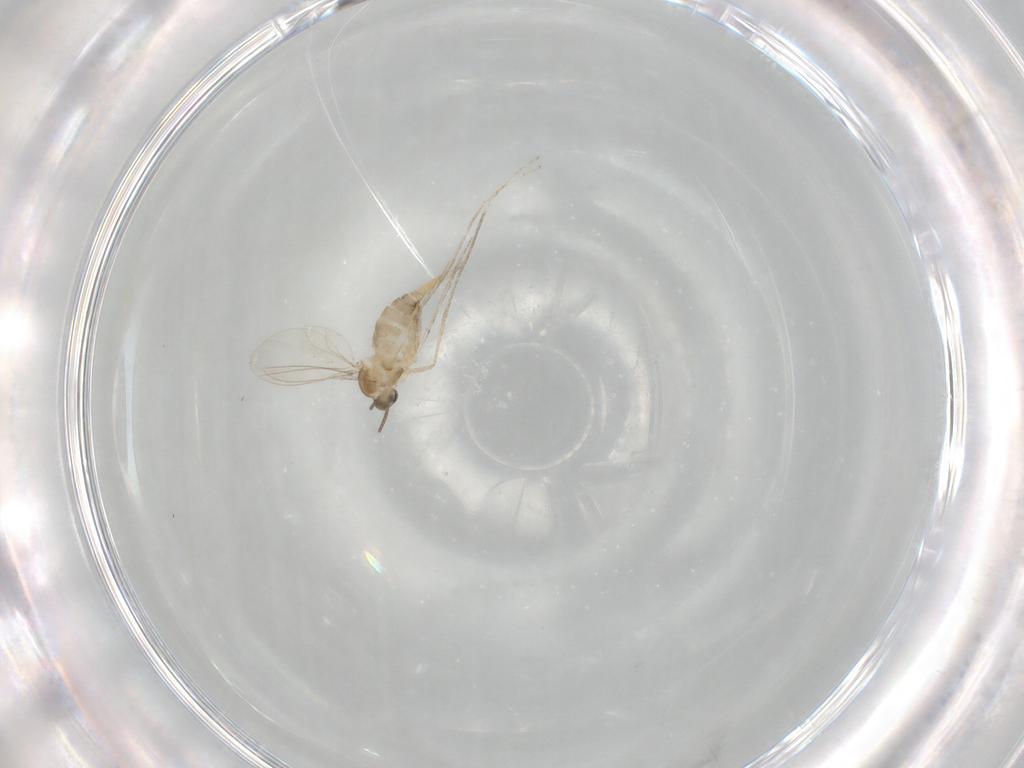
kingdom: Animalia
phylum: Arthropoda
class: Insecta
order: Diptera
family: Cecidomyiidae
